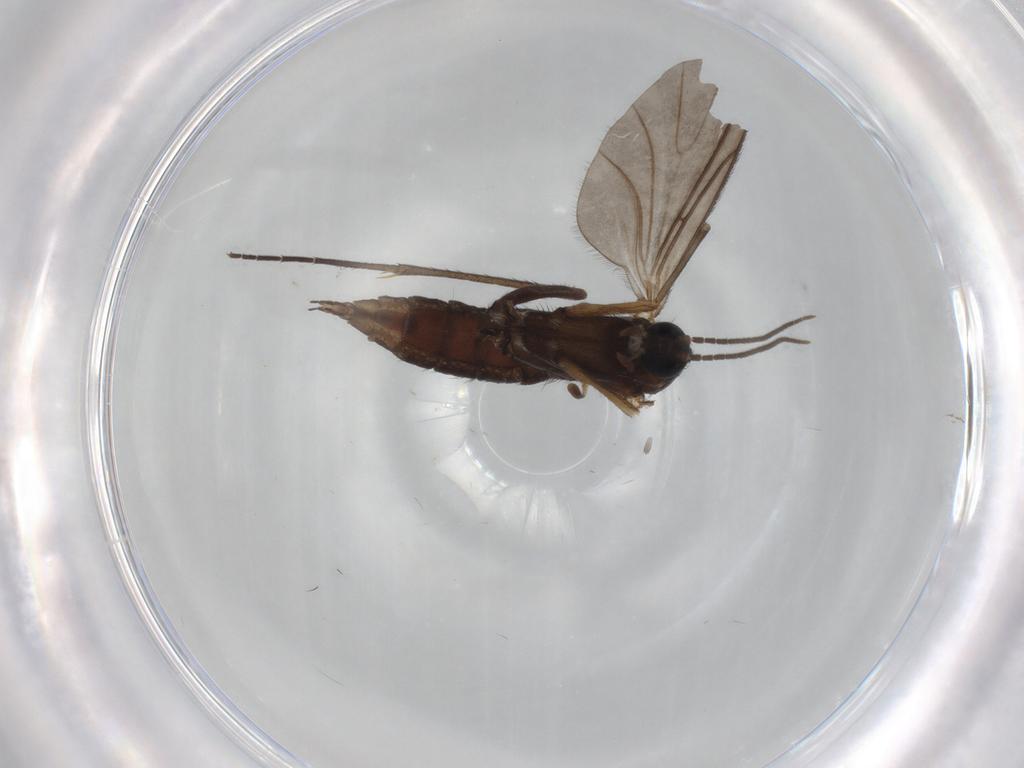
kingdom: Animalia
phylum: Arthropoda
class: Insecta
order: Diptera
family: Sciaridae
